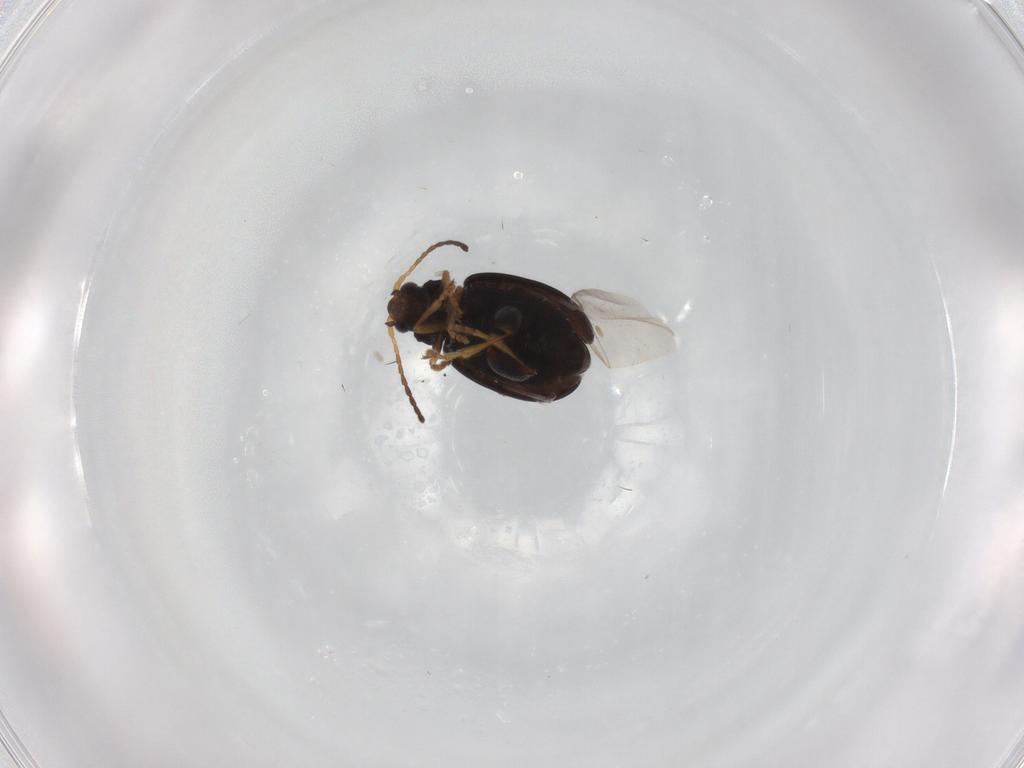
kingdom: Animalia
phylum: Arthropoda
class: Insecta
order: Coleoptera
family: Chrysomelidae
